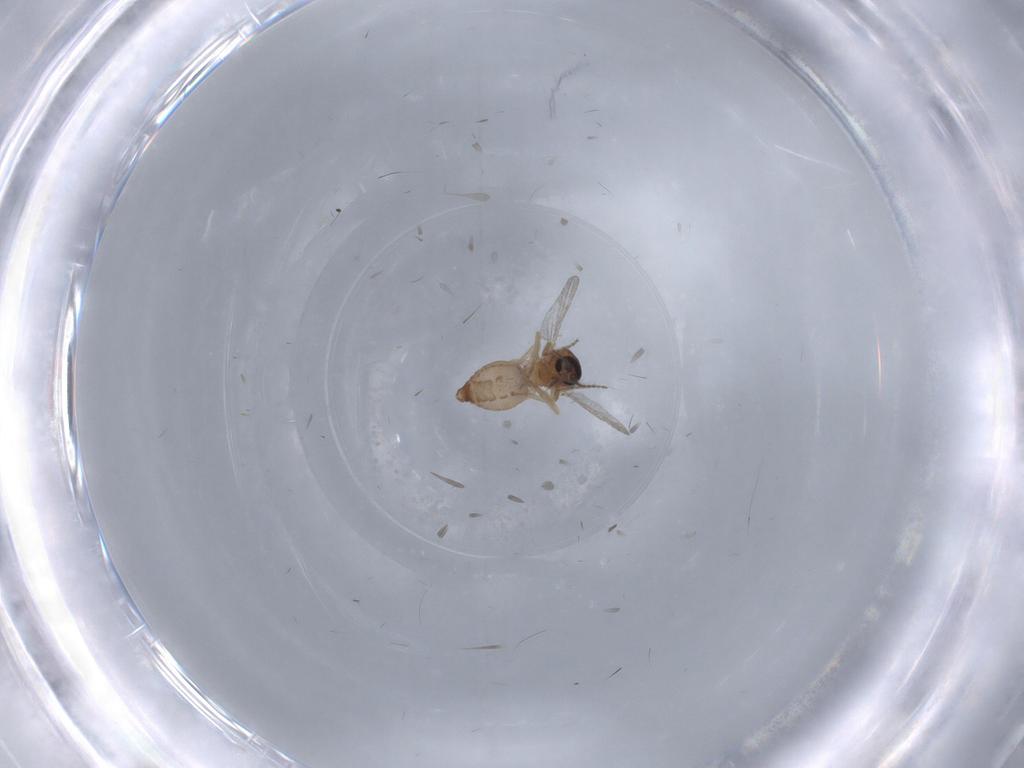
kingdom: Animalia
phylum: Arthropoda
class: Insecta
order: Diptera
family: Ceratopogonidae
